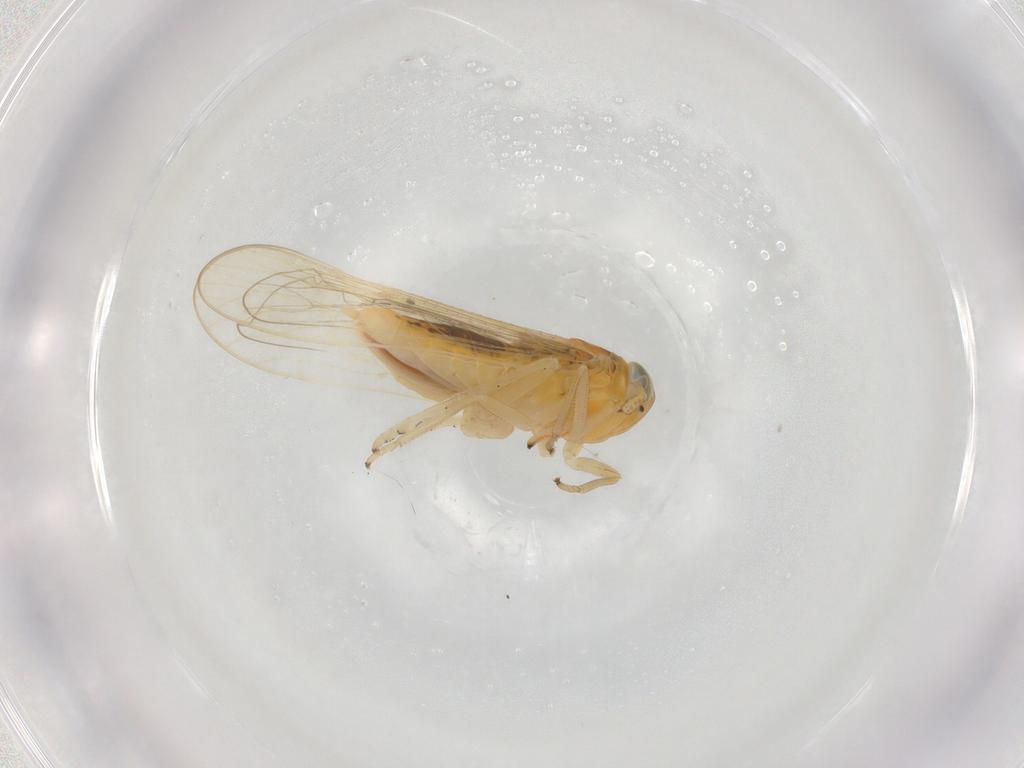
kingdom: Animalia
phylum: Arthropoda
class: Insecta
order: Hemiptera
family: Delphacidae
